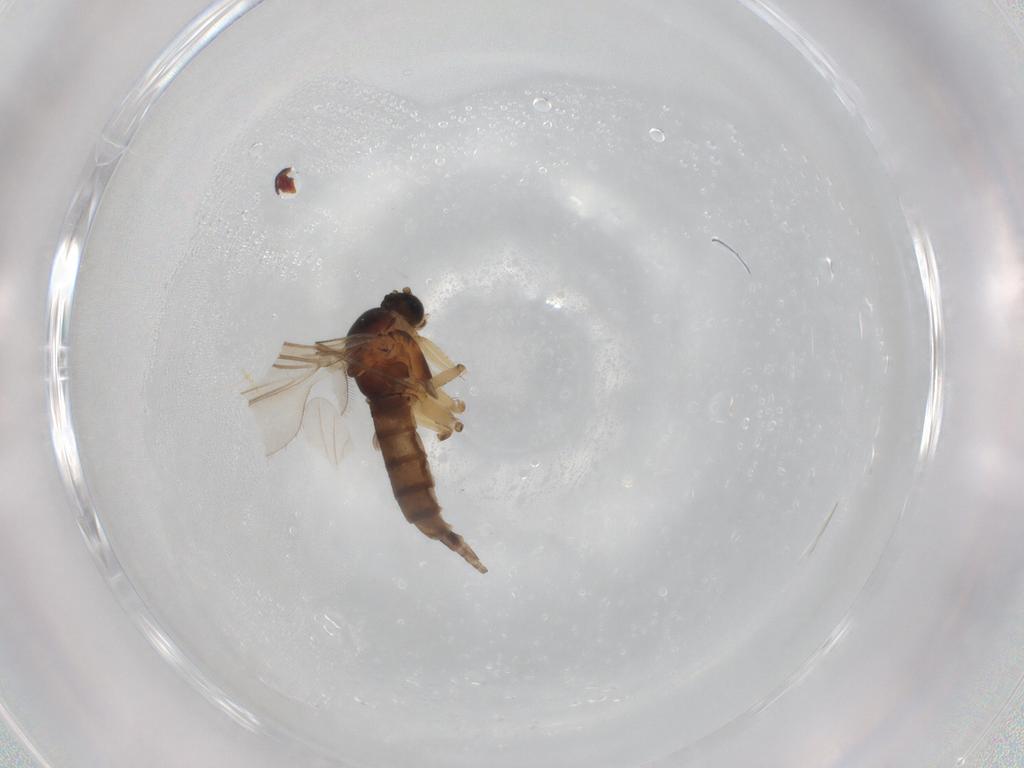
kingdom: Animalia
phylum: Arthropoda
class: Insecta
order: Diptera
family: Sciaridae
